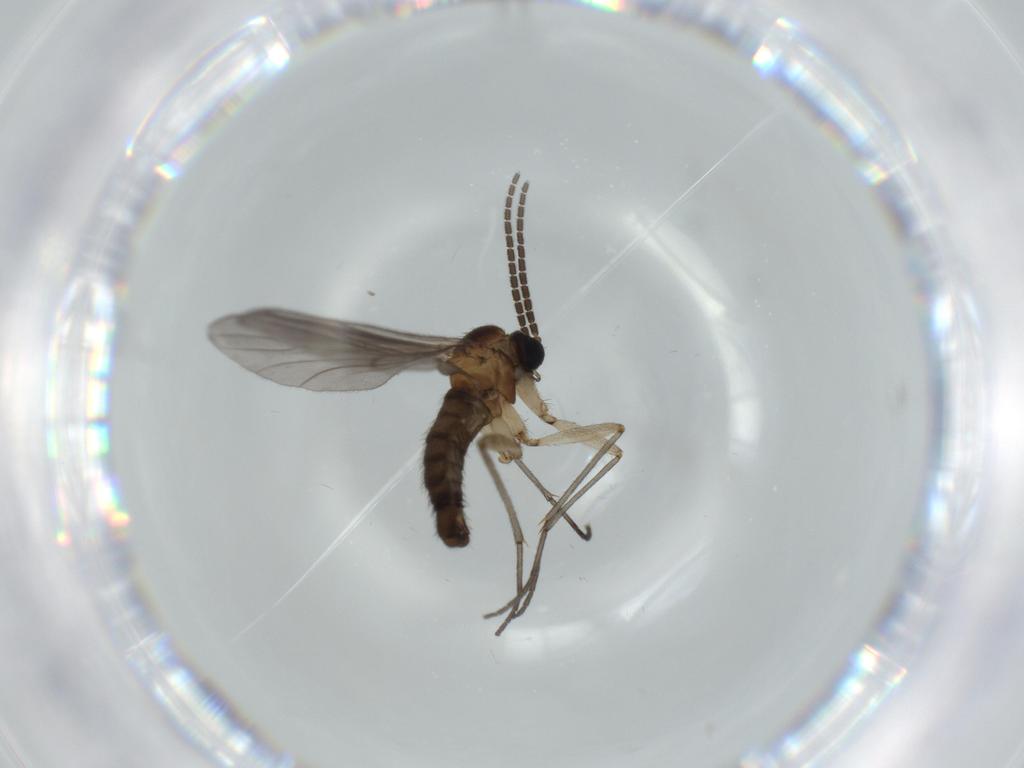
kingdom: Animalia
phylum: Arthropoda
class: Insecta
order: Diptera
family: Sciaridae
